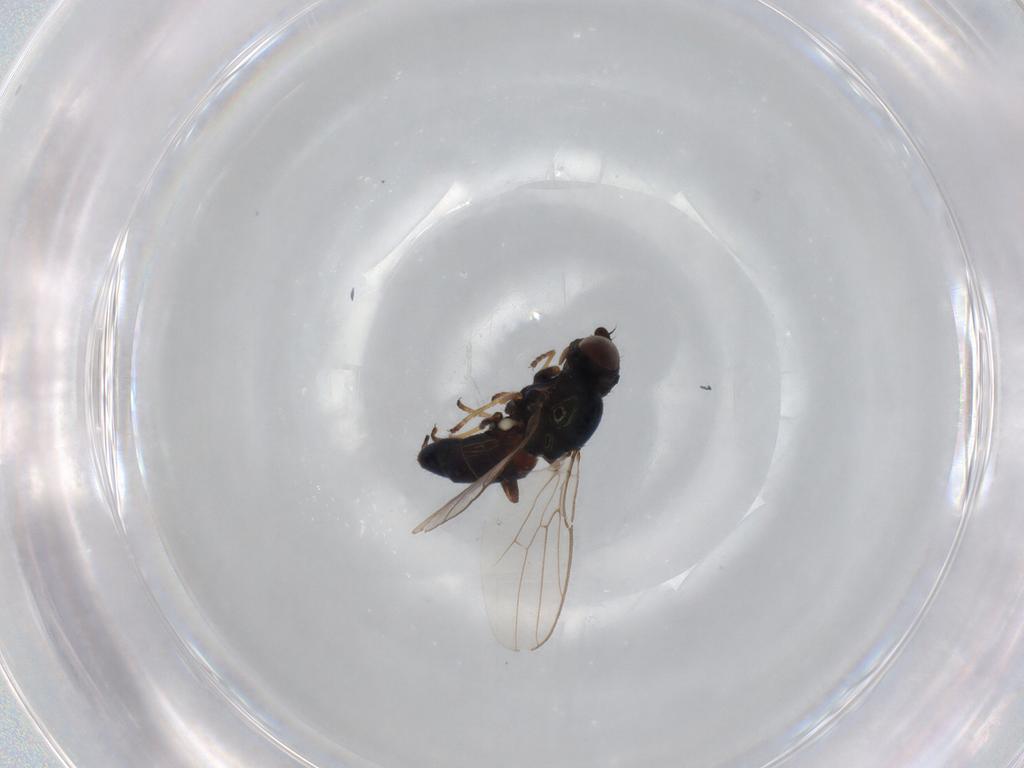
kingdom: Animalia
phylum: Arthropoda
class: Insecta
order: Diptera
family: Chloropidae
